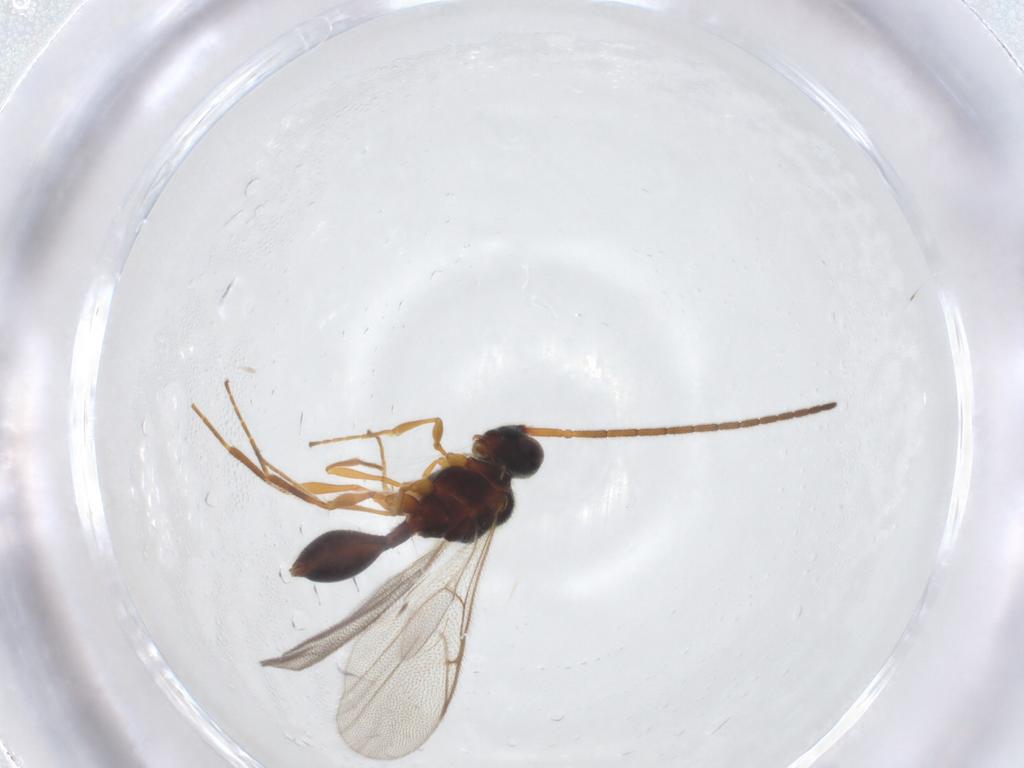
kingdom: Animalia
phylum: Arthropoda
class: Insecta
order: Hymenoptera
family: Diapriidae
